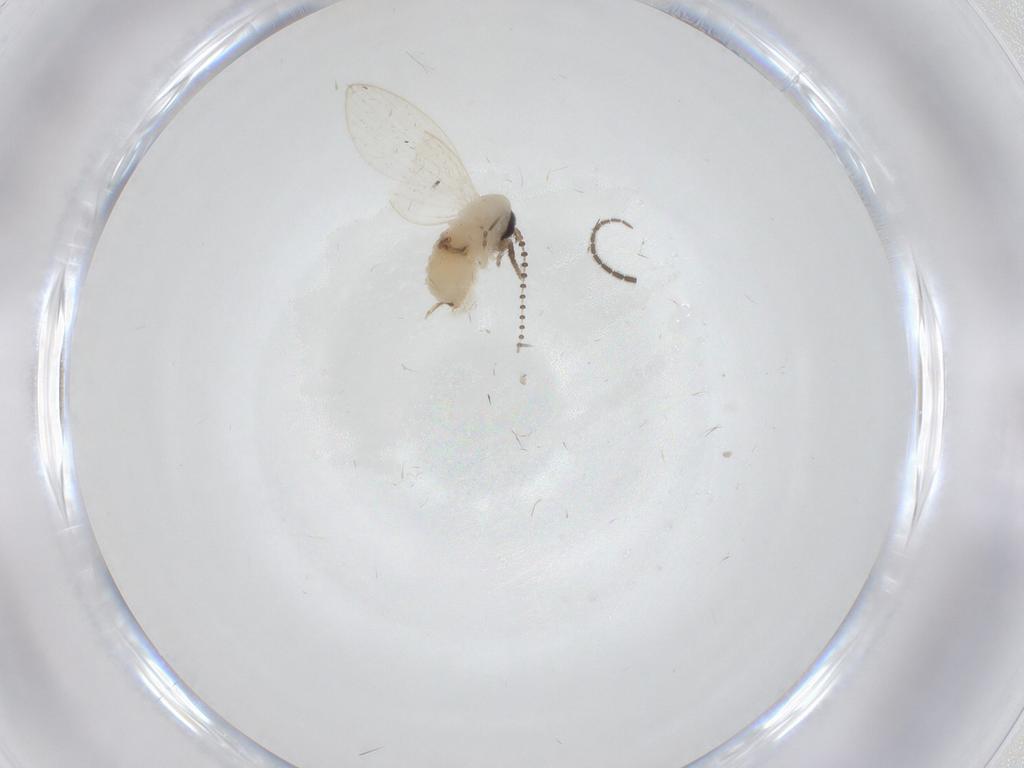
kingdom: Animalia
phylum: Arthropoda
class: Insecta
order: Diptera
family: Psychodidae
